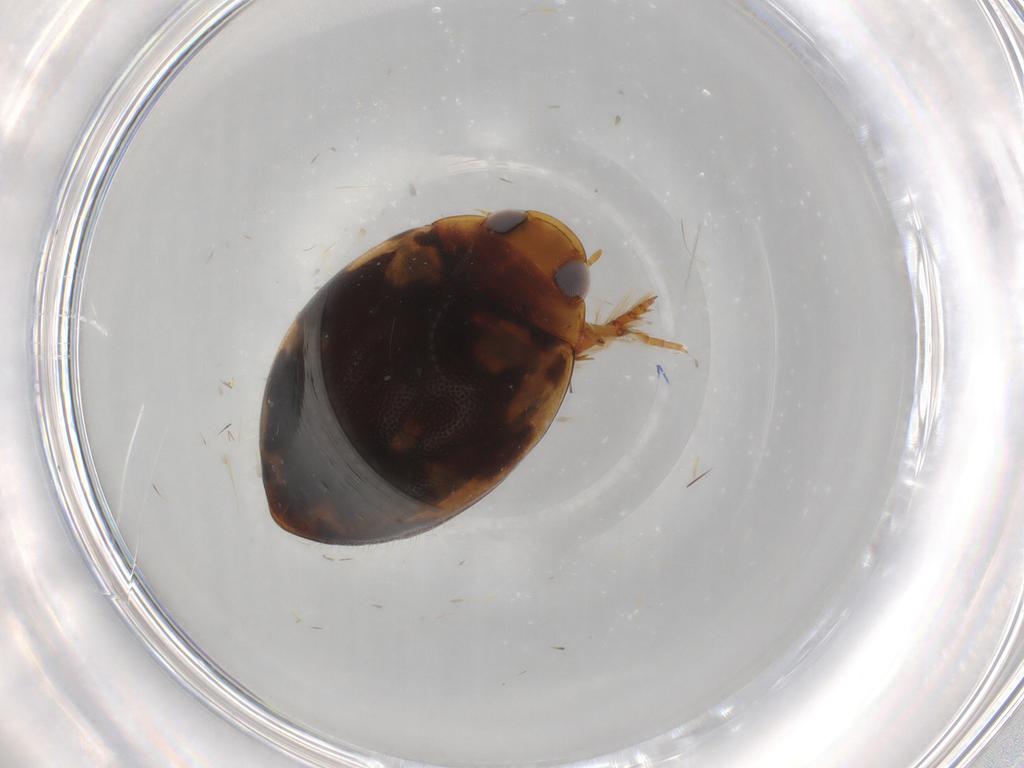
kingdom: Animalia
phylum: Arthropoda
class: Insecta
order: Coleoptera
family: Dytiscidae
